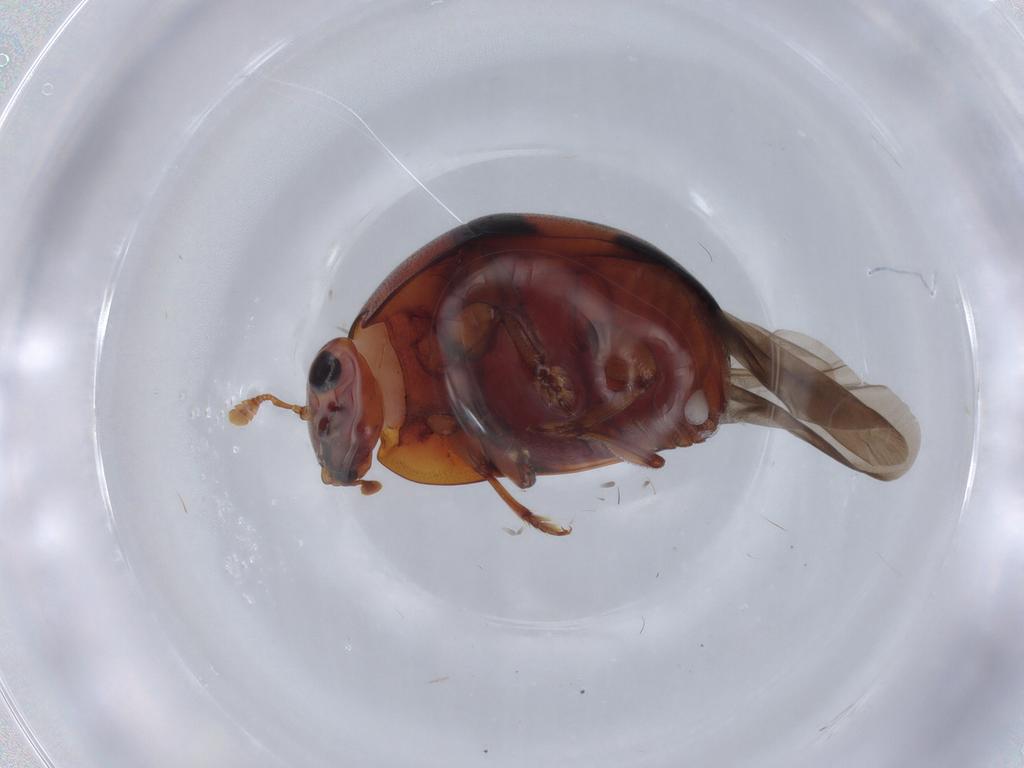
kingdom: Animalia
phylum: Arthropoda
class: Insecta
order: Coleoptera
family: Nitidulidae
